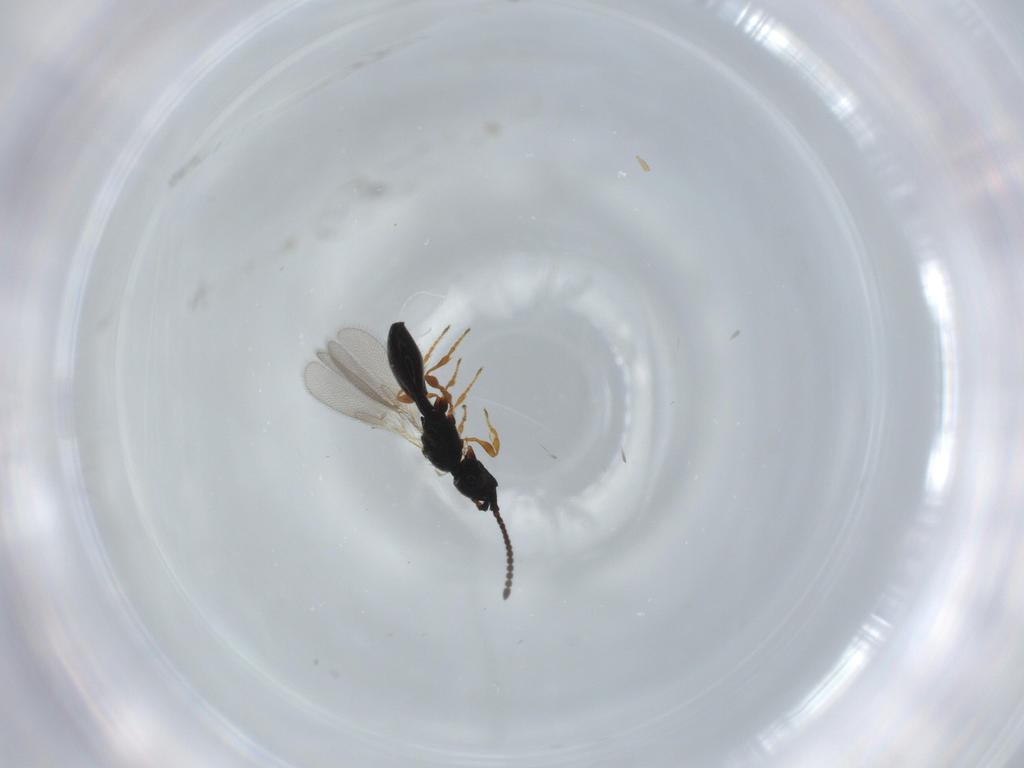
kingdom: Animalia
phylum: Arthropoda
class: Insecta
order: Hymenoptera
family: Diapriidae
